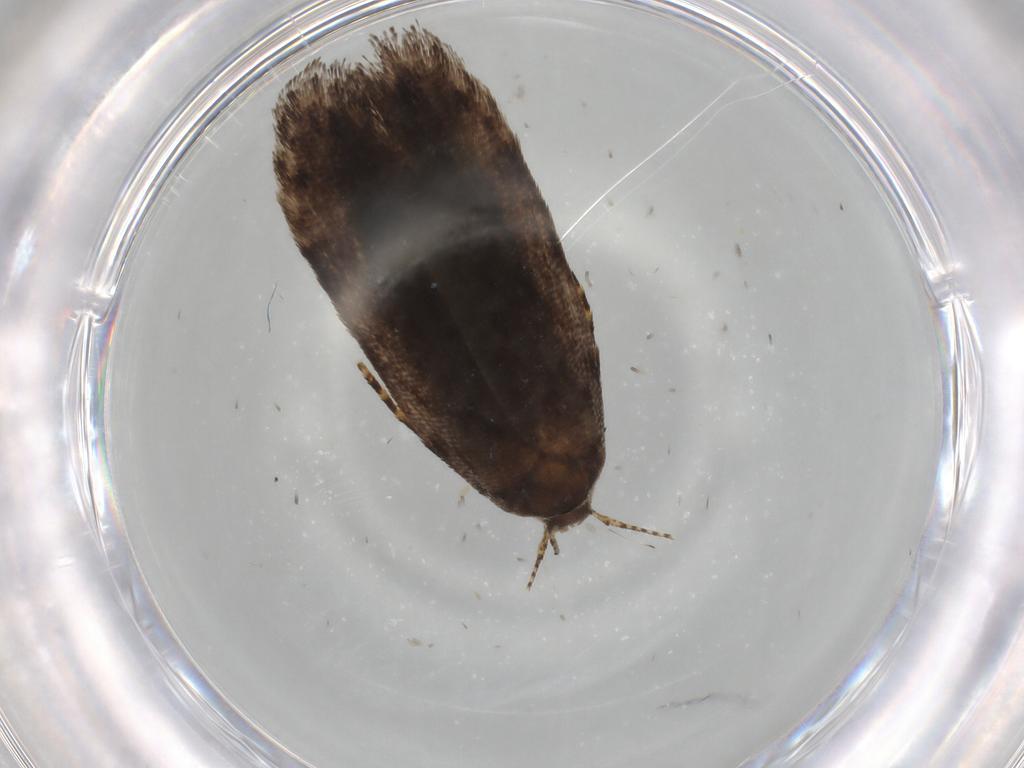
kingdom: Animalia
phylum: Arthropoda
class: Insecta
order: Lepidoptera
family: Gelechiidae
